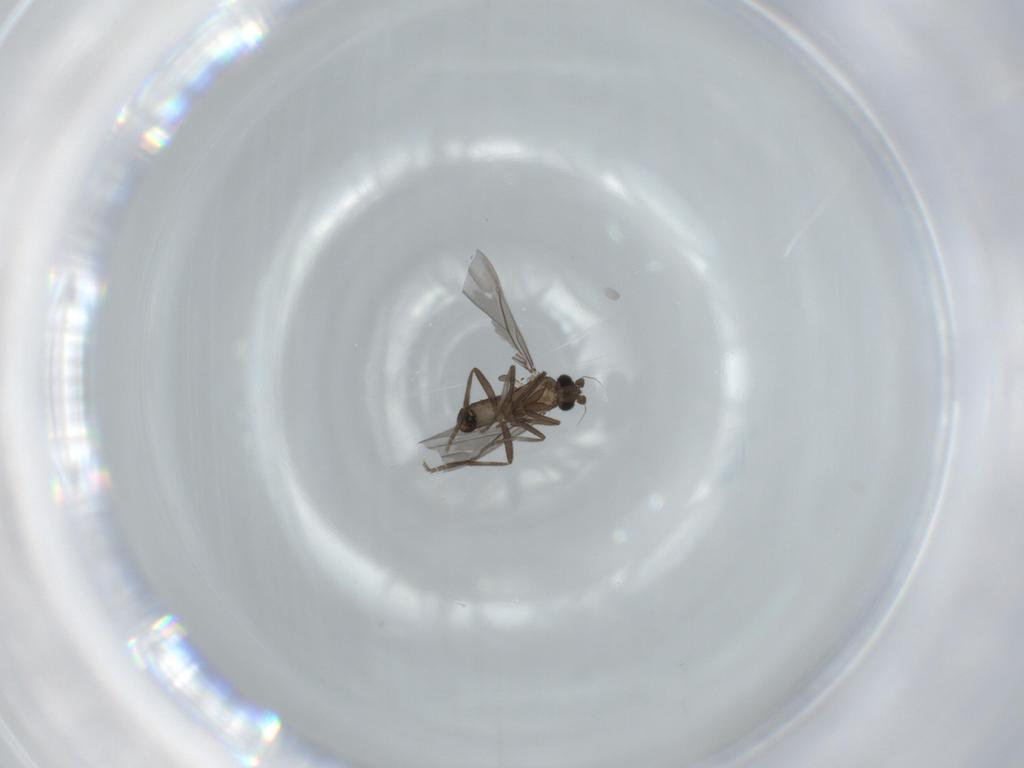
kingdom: Animalia
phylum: Arthropoda
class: Insecta
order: Diptera
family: Phoridae
